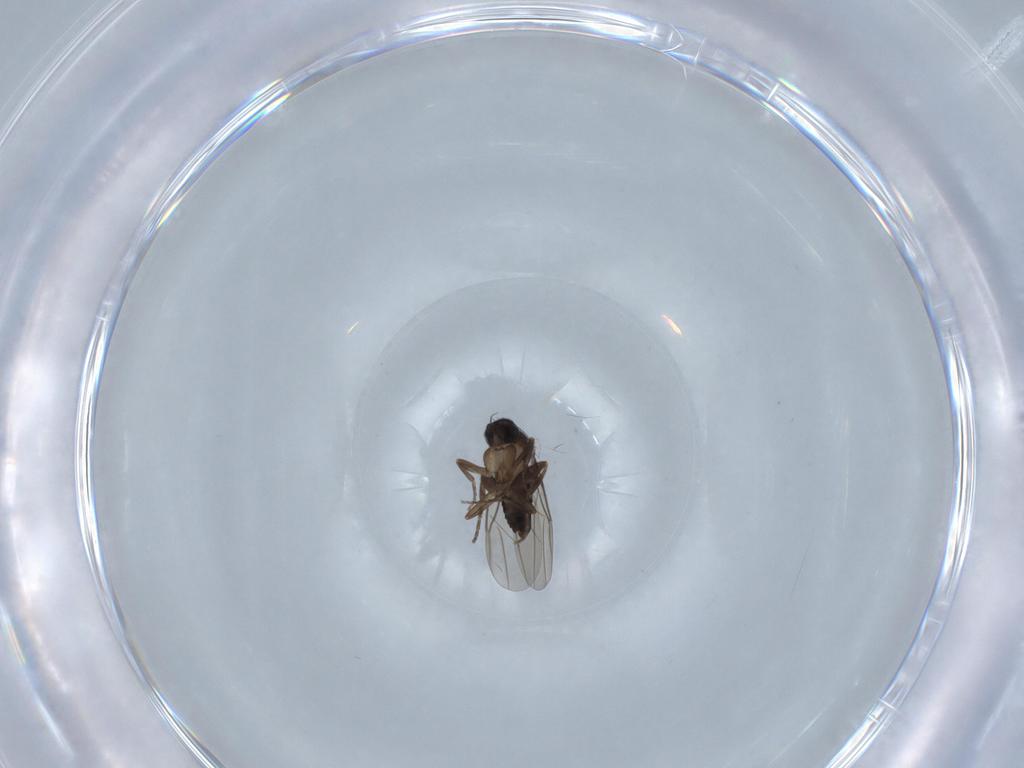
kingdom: Animalia
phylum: Arthropoda
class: Insecta
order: Diptera
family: Phoridae
